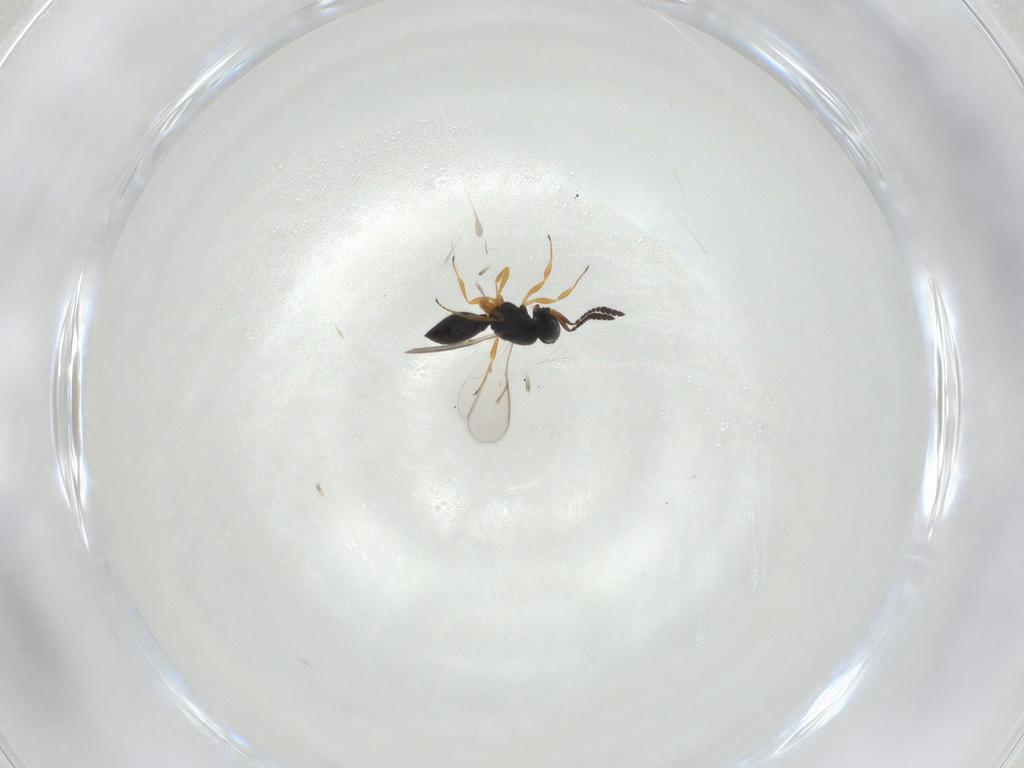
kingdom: Animalia
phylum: Arthropoda
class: Insecta
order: Hymenoptera
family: Scelionidae
